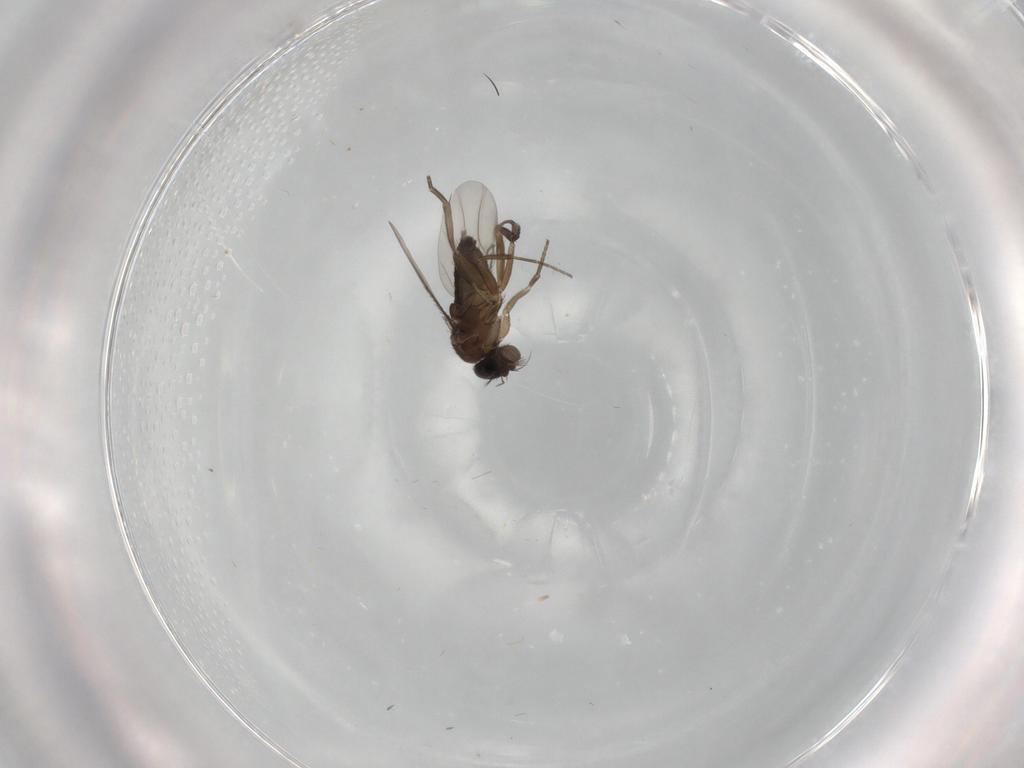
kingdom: Animalia
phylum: Arthropoda
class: Insecta
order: Diptera
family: Phoridae
